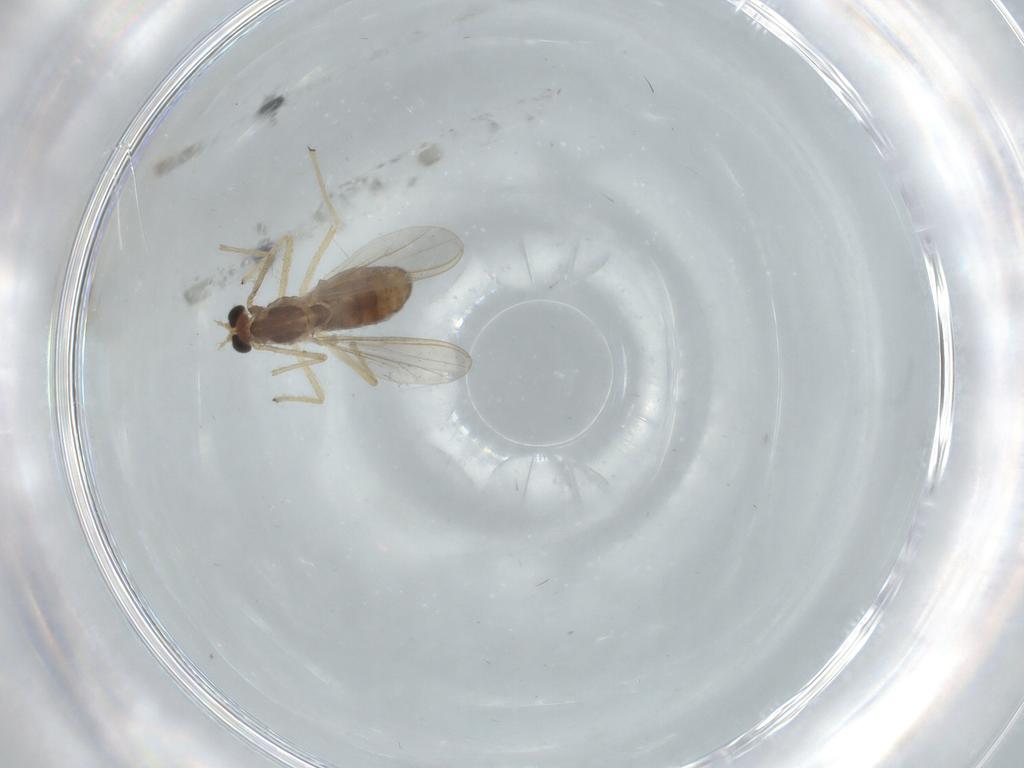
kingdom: Animalia
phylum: Arthropoda
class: Insecta
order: Diptera
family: Chironomidae
